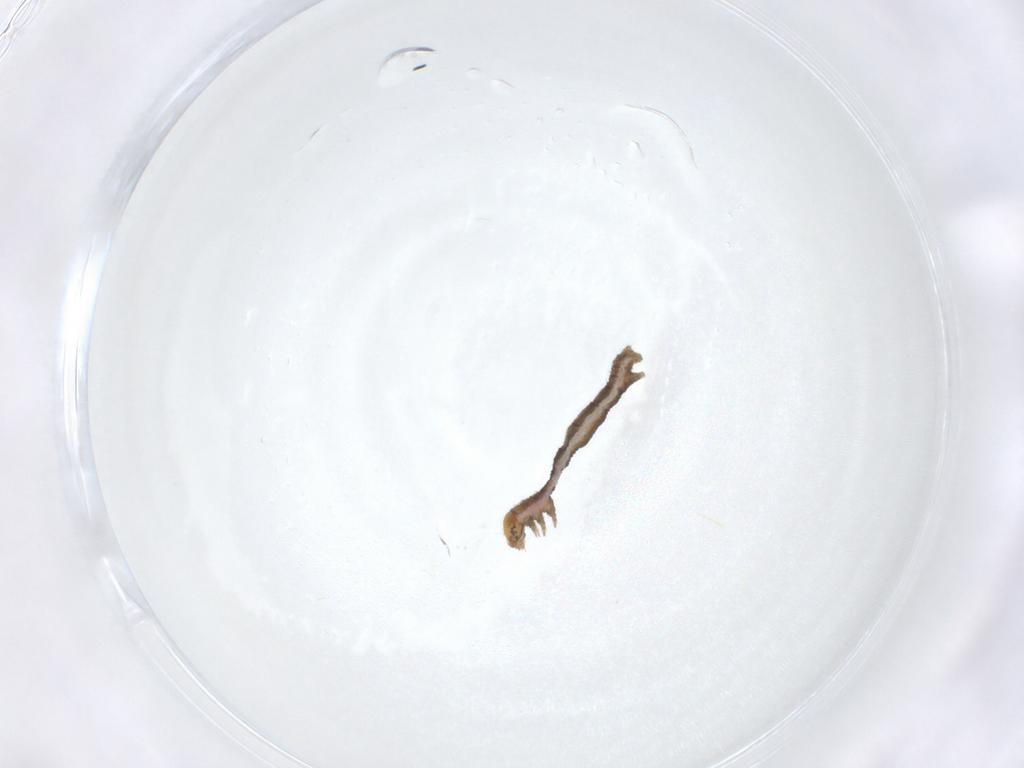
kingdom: Animalia
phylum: Arthropoda
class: Insecta
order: Lepidoptera
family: Geometridae
